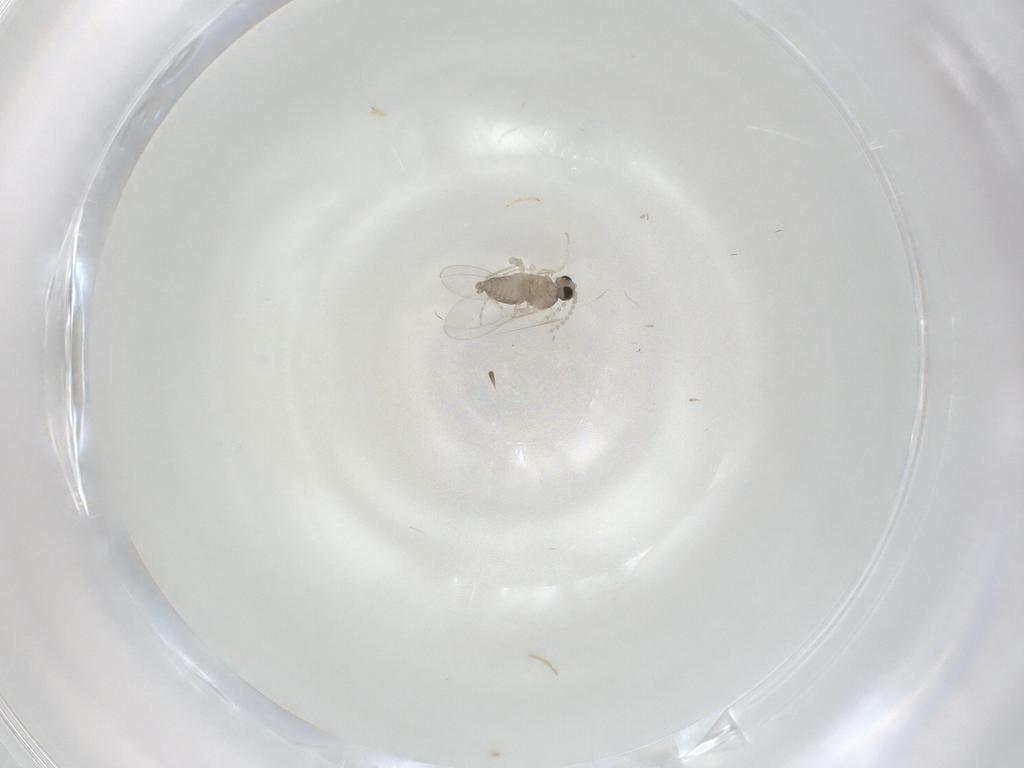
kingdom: Animalia
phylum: Arthropoda
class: Insecta
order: Diptera
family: Cecidomyiidae
